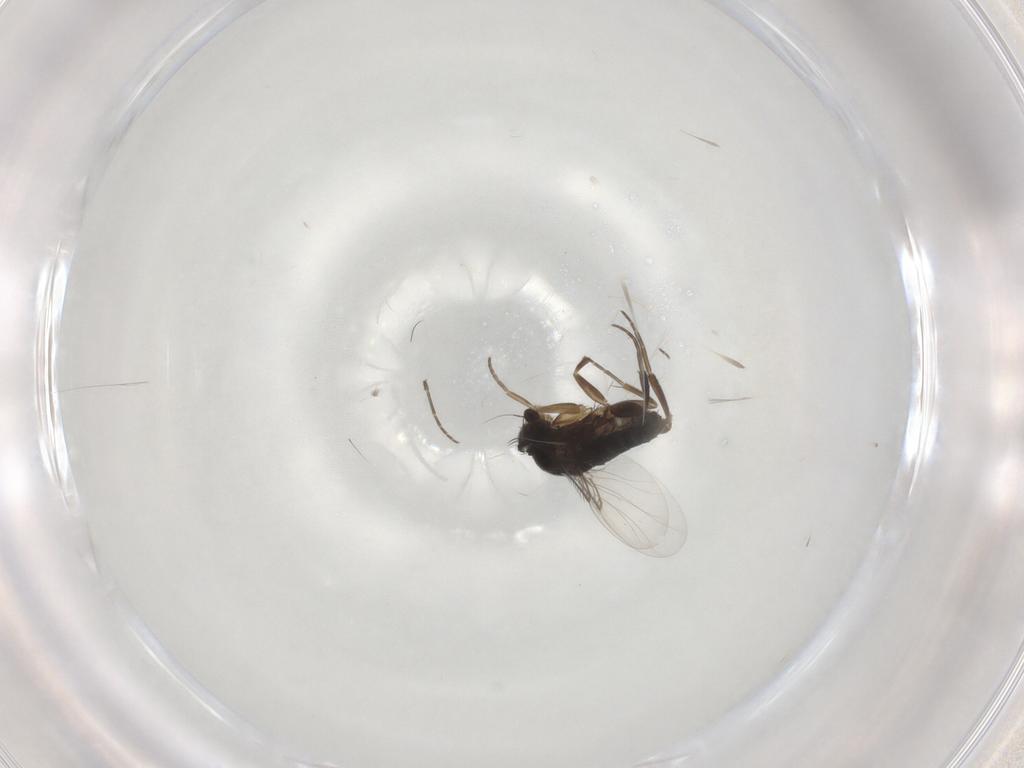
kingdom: Animalia
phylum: Arthropoda
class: Insecta
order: Diptera
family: Phoridae
